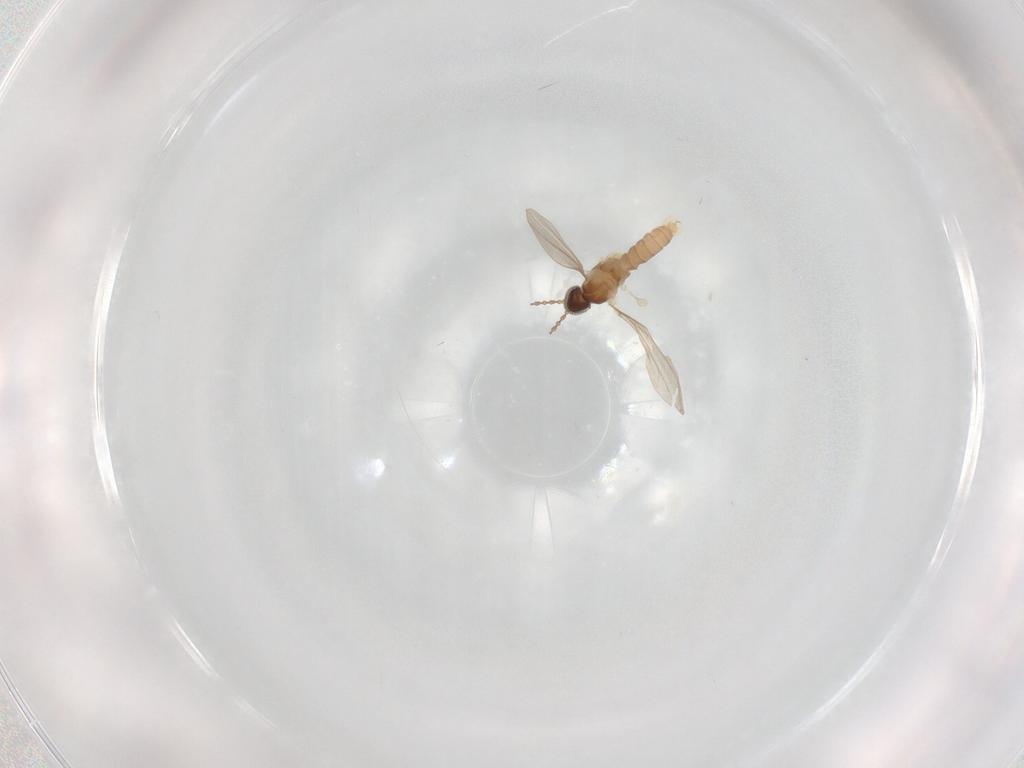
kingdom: Animalia
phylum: Arthropoda
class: Insecta
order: Diptera
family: Cecidomyiidae
